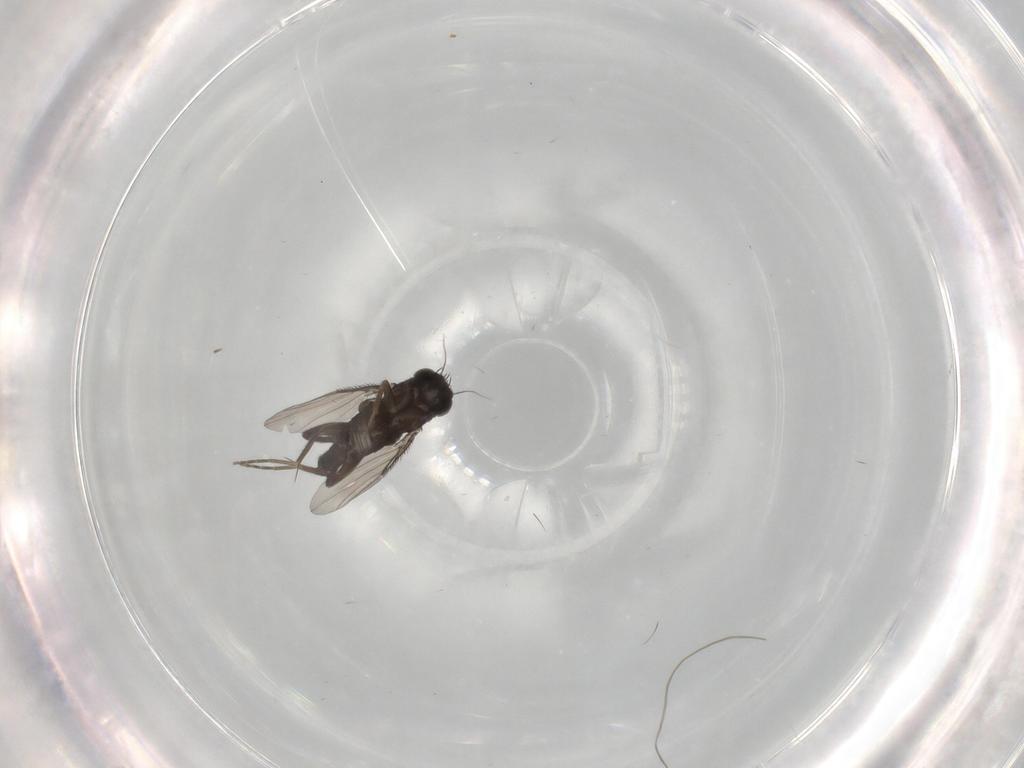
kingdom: Animalia
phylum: Arthropoda
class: Insecta
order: Diptera
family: Phoridae
